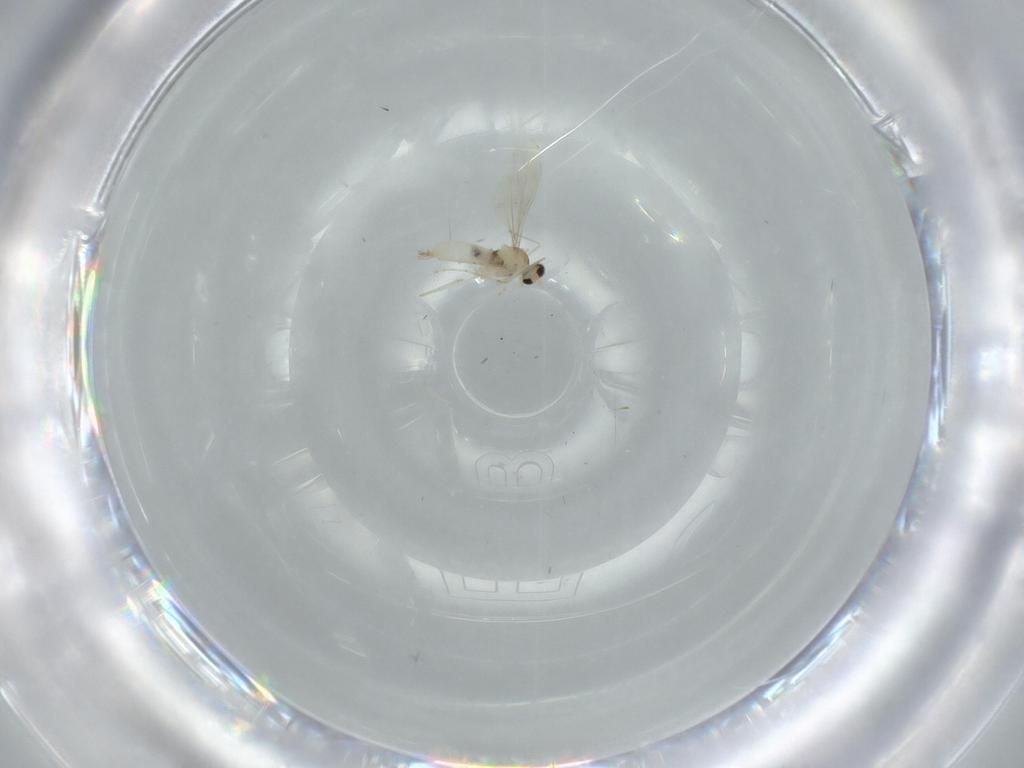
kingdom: Animalia
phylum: Arthropoda
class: Insecta
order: Diptera
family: Cecidomyiidae
